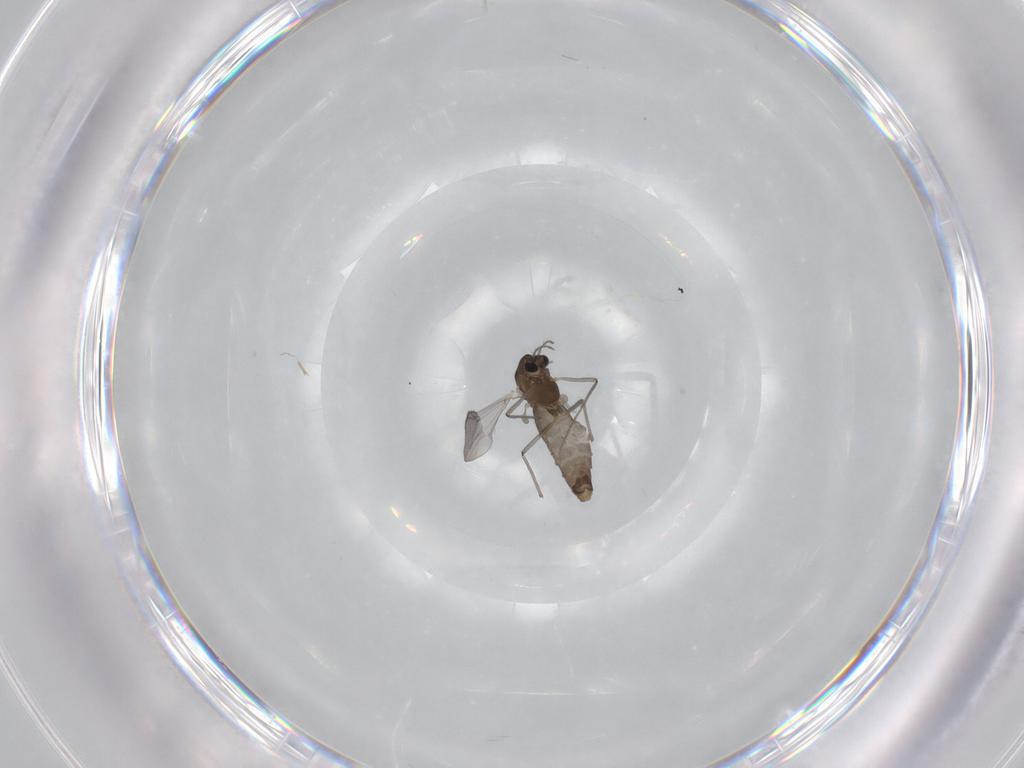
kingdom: Animalia
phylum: Arthropoda
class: Insecta
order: Diptera
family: Chironomidae
